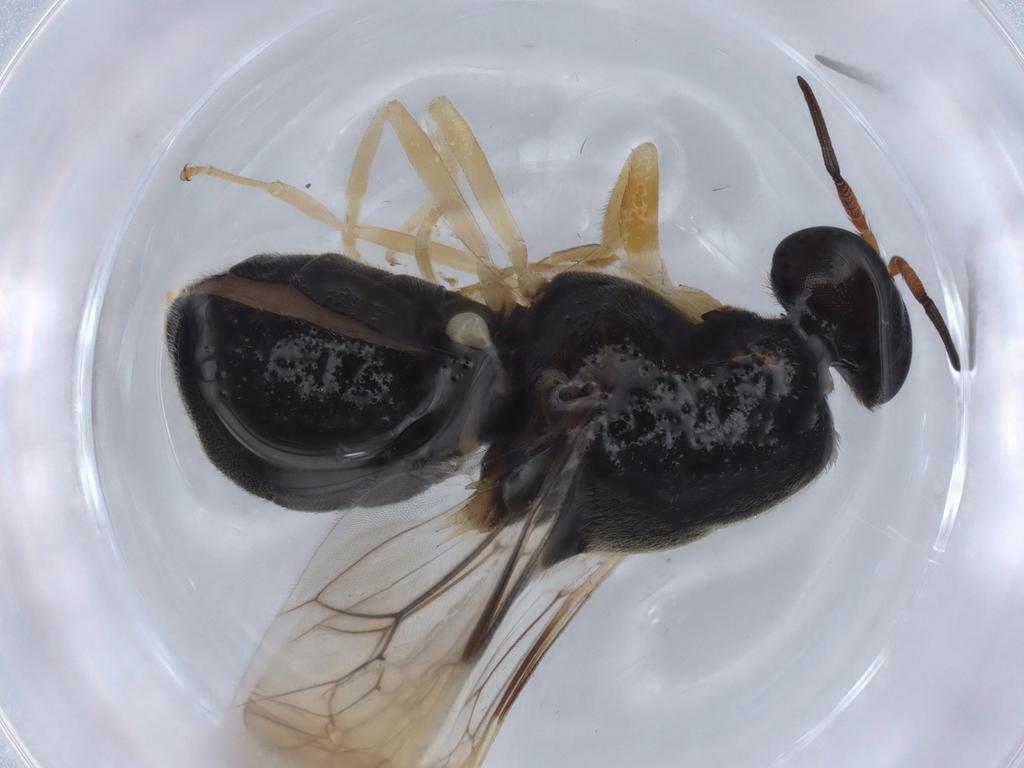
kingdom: Animalia
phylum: Arthropoda
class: Insecta
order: Diptera
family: Stratiomyidae
